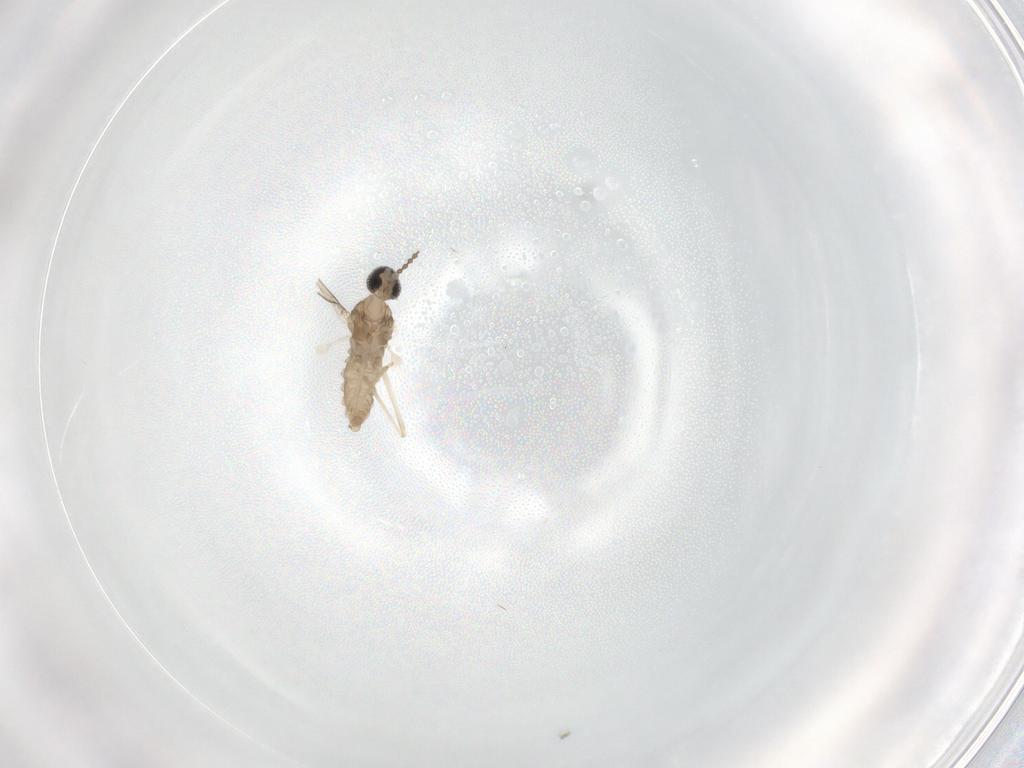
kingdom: Animalia
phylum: Arthropoda
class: Insecta
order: Diptera
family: Cecidomyiidae
